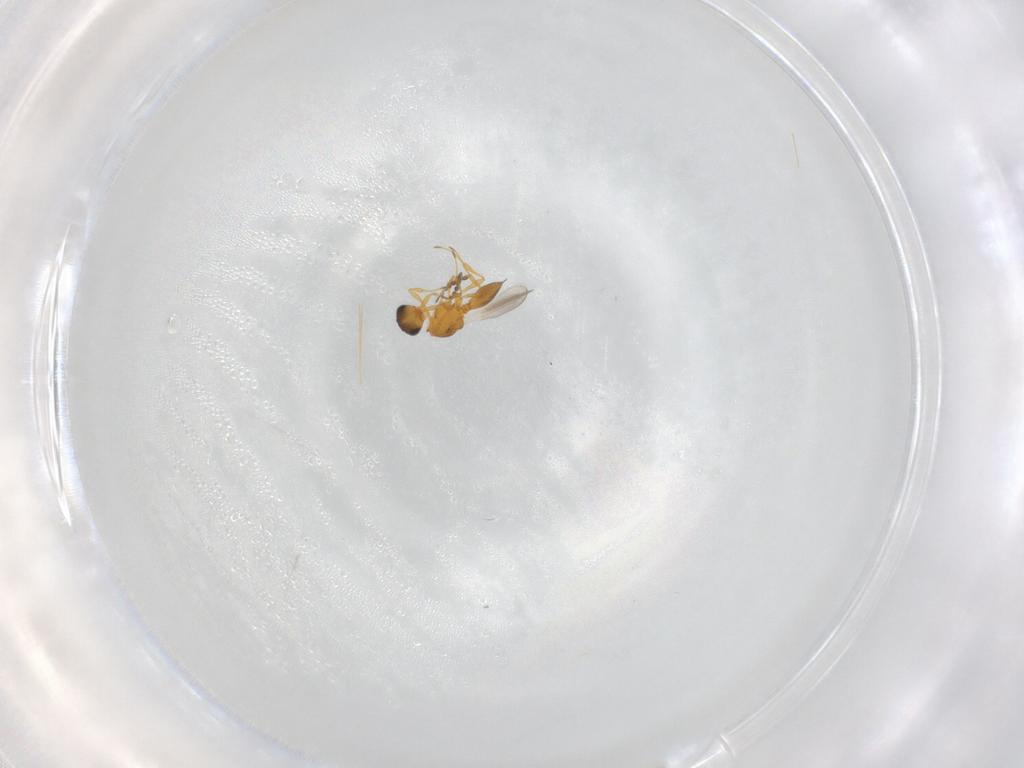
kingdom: Animalia
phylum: Arthropoda
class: Insecta
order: Hymenoptera
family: Platygastridae
